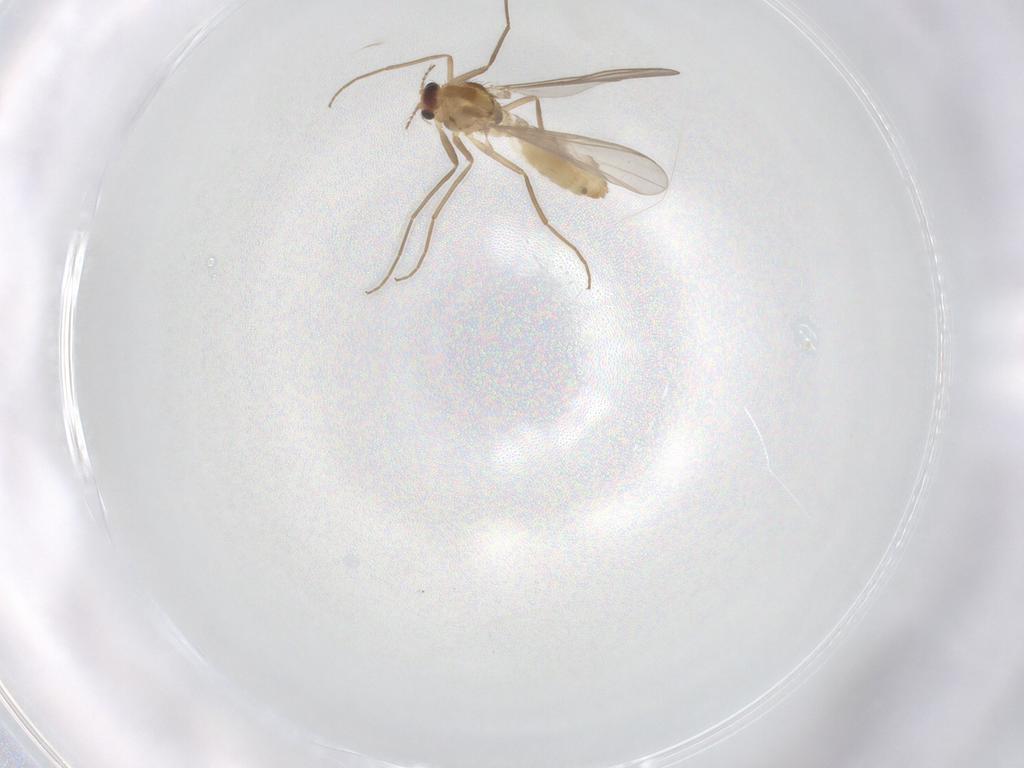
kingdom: Animalia
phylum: Arthropoda
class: Insecta
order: Diptera
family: Chironomidae
